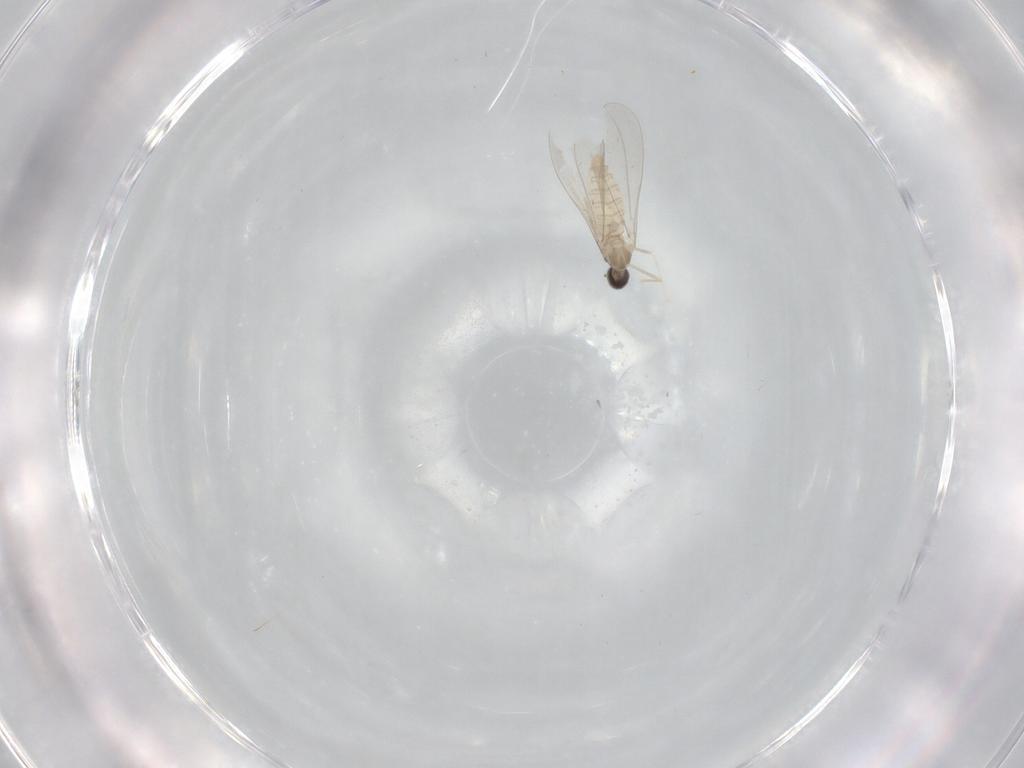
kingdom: Animalia
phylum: Arthropoda
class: Insecta
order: Diptera
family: Cecidomyiidae
